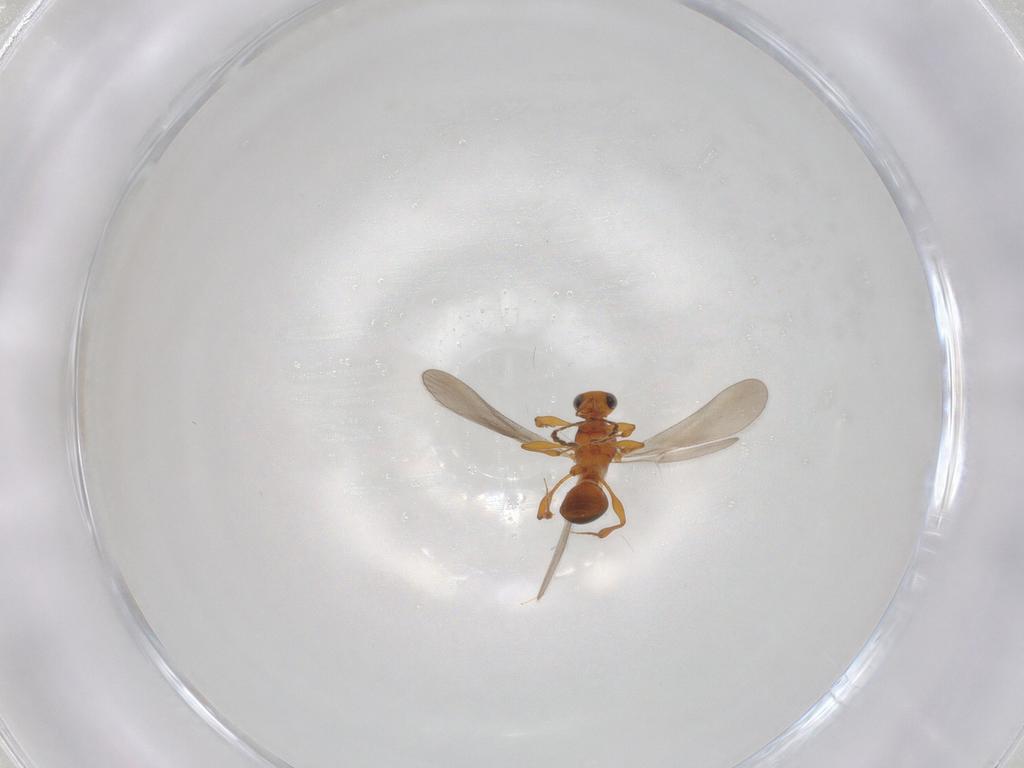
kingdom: Animalia
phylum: Arthropoda
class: Insecta
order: Hymenoptera
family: Platygastridae
